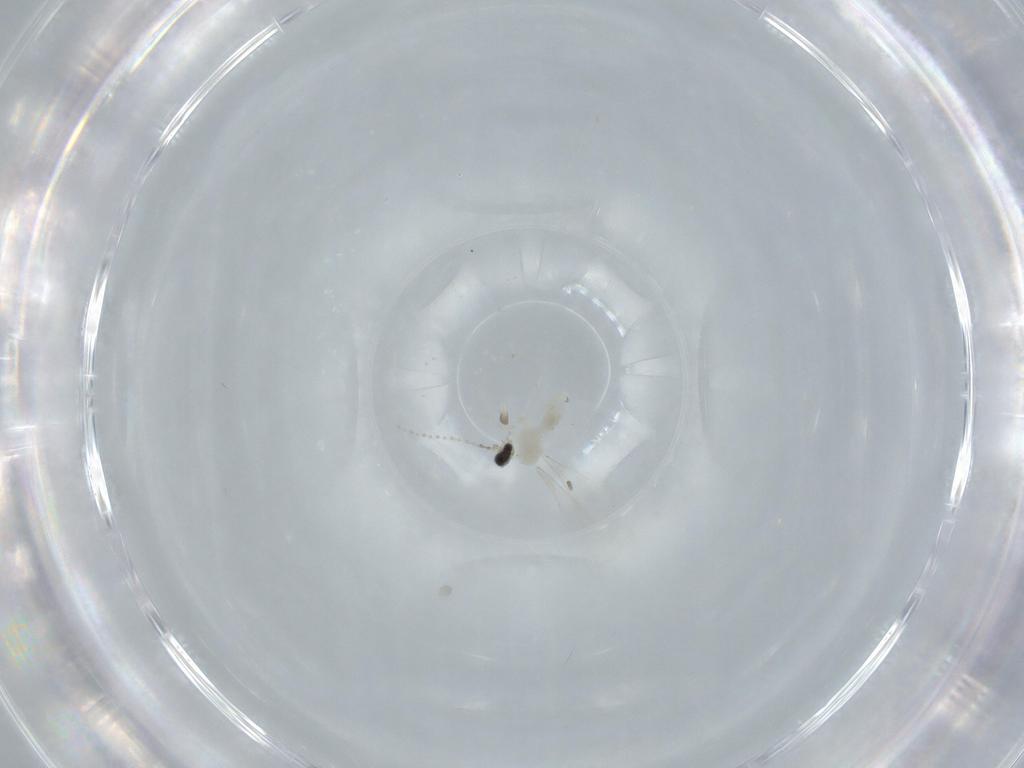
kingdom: Animalia
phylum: Arthropoda
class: Insecta
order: Diptera
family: Cecidomyiidae
